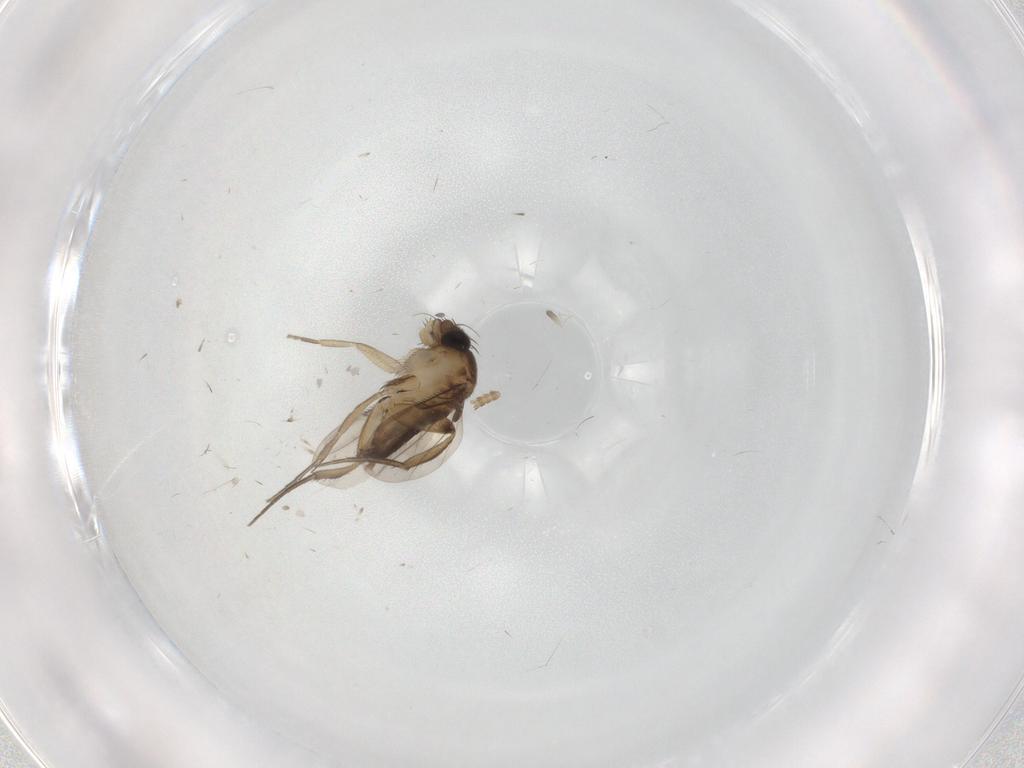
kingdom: Animalia
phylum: Arthropoda
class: Insecta
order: Diptera
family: Phoridae
